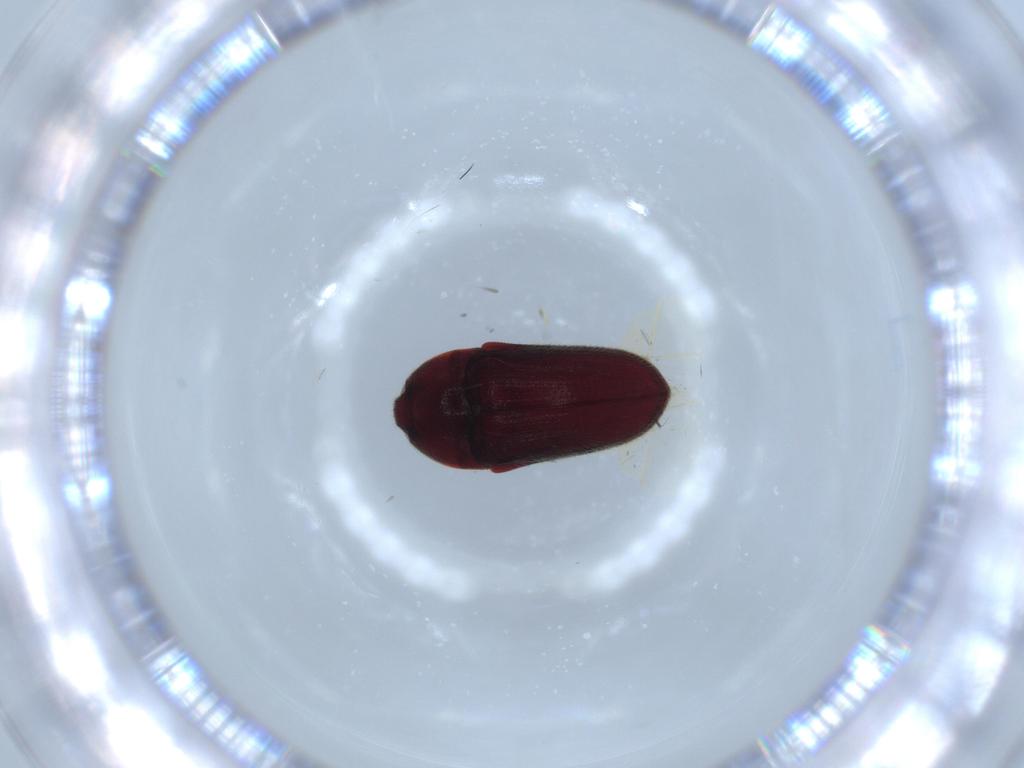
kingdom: Animalia
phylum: Arthropoda
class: Insecta
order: Coleoptera
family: Throscidae
